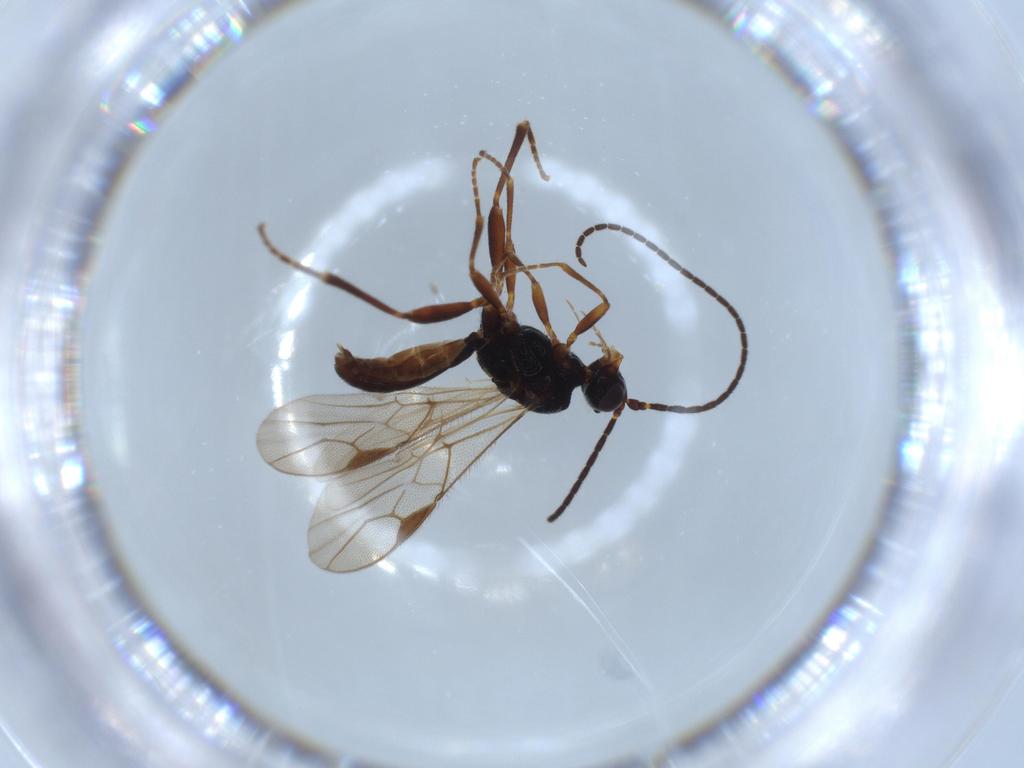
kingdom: Animalia
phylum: Arthropoda
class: Insecta
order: Hymenoptera
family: Braconidae
